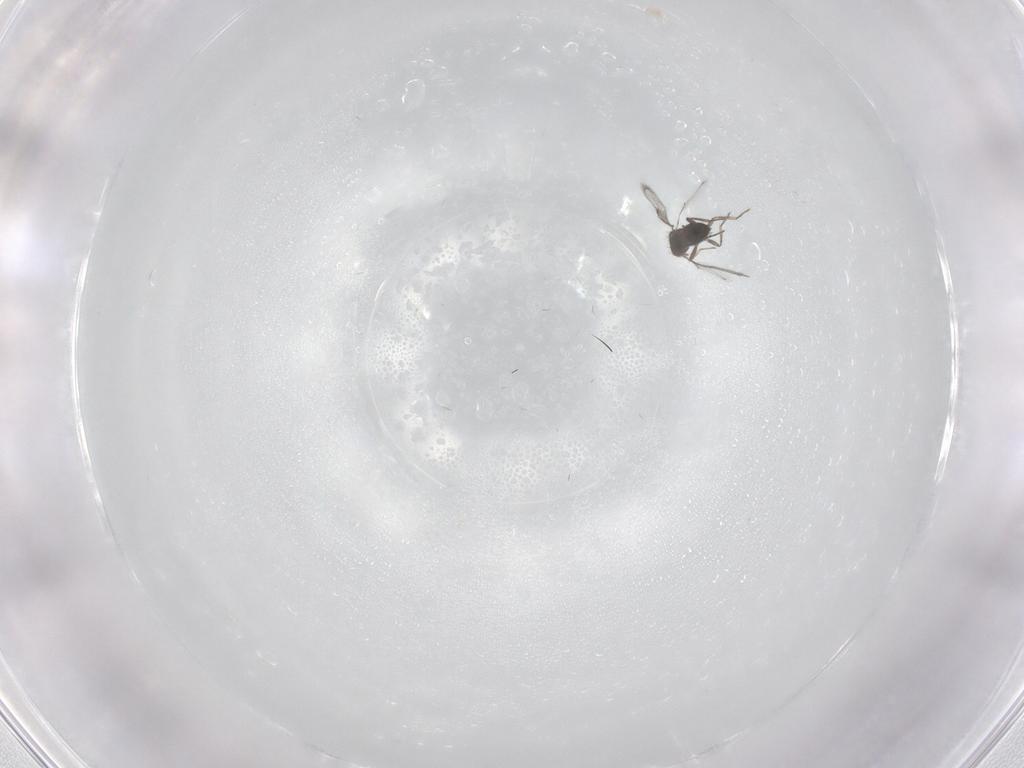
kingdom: Animalia
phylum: Arthropoda
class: Insecta
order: Hymenoptera
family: Trichogrammatidae
